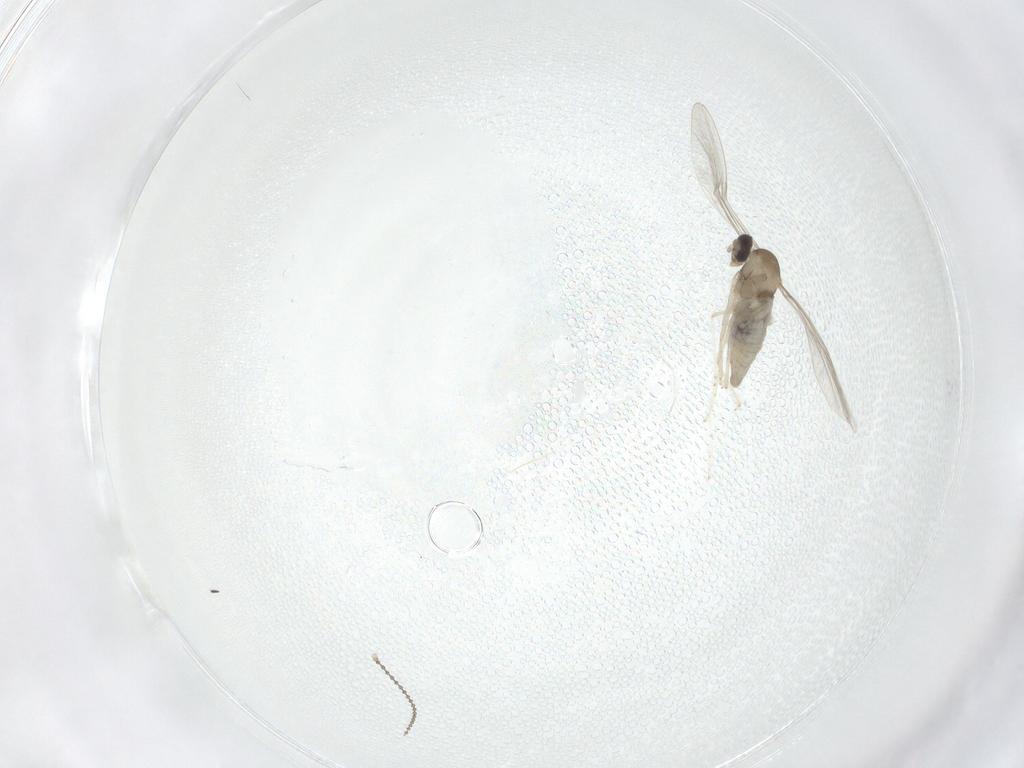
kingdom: Animalia
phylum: Arthropoda
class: Insecta
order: Diptera
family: Cecidomyiidae
